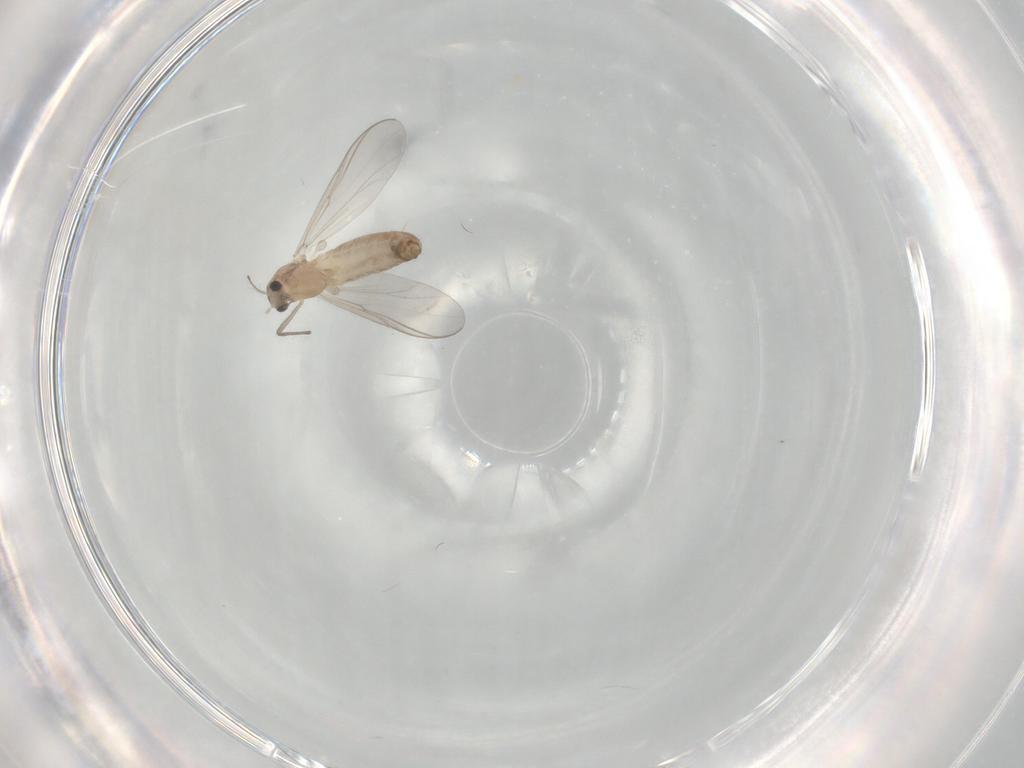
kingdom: Animalia
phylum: Arthropoda
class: Insecta
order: Diptera
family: Chironomidae
